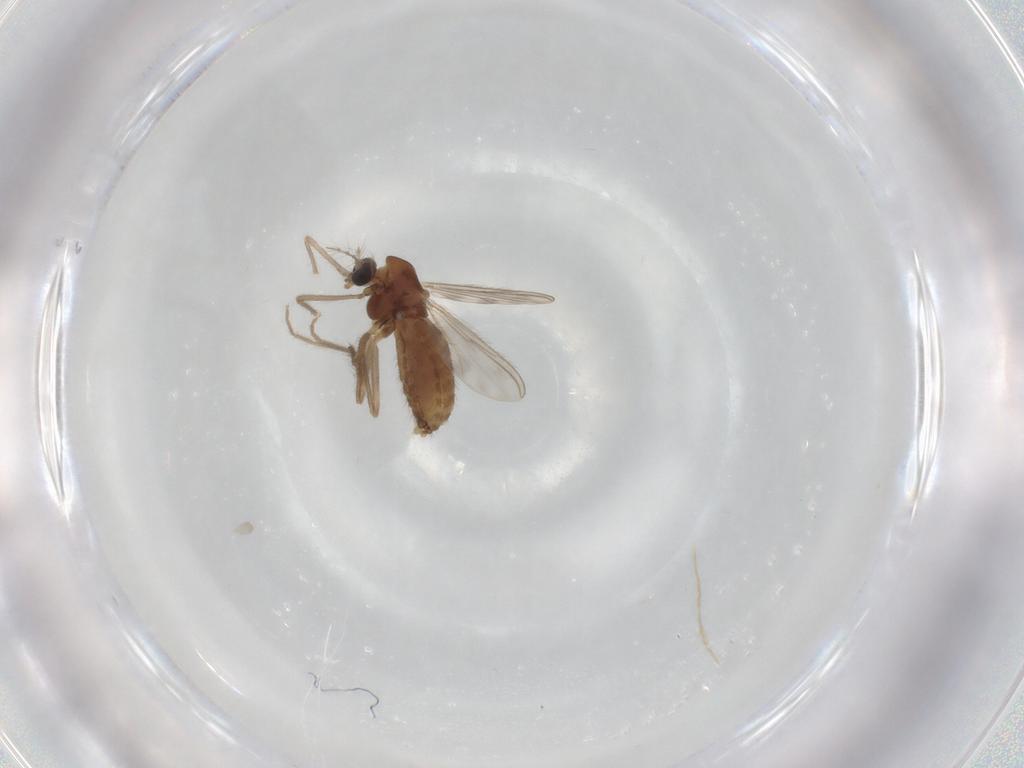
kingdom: Animalia
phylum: Arthropoda
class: Insecta
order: Diptera
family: Chironomidae
